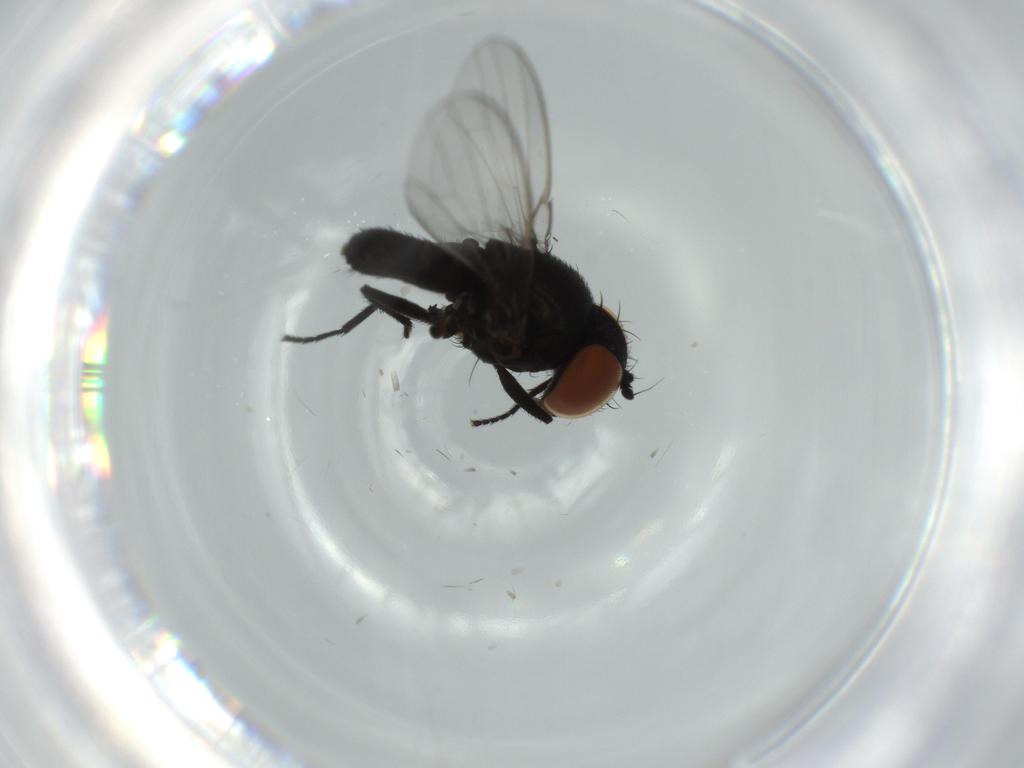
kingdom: Animalia
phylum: Arthropoda
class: Insecta
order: Diptera
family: Milichiidae
